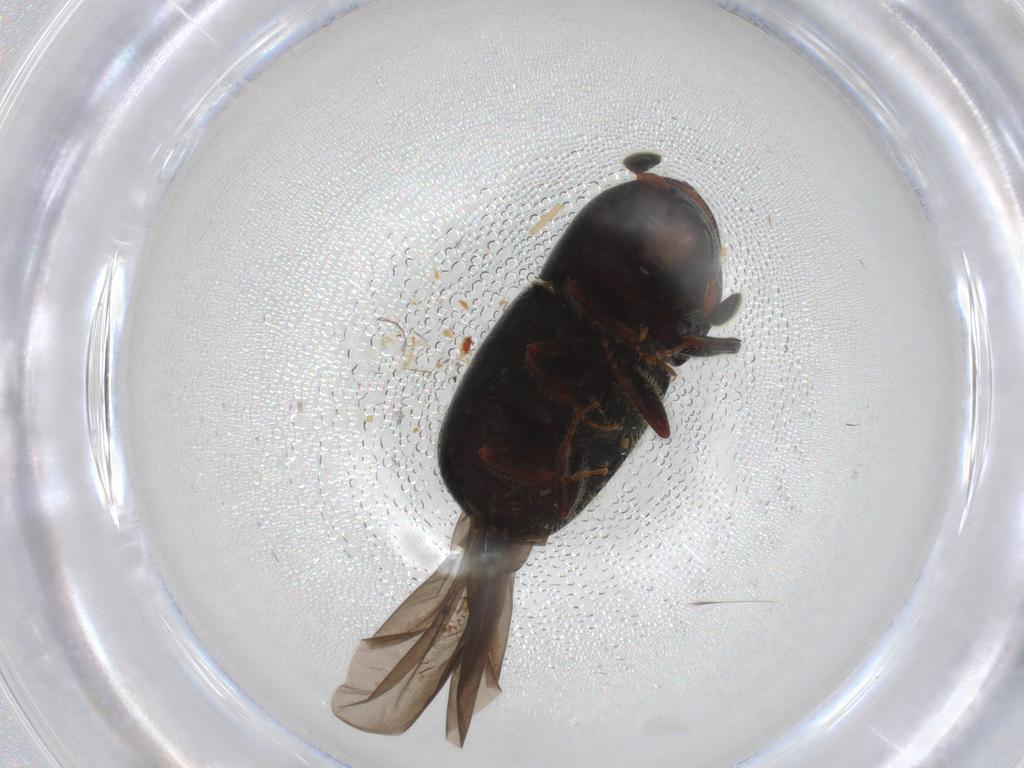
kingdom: Animalia
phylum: Arthropoda
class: Insecta
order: Coleoptera
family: Curculionidae
